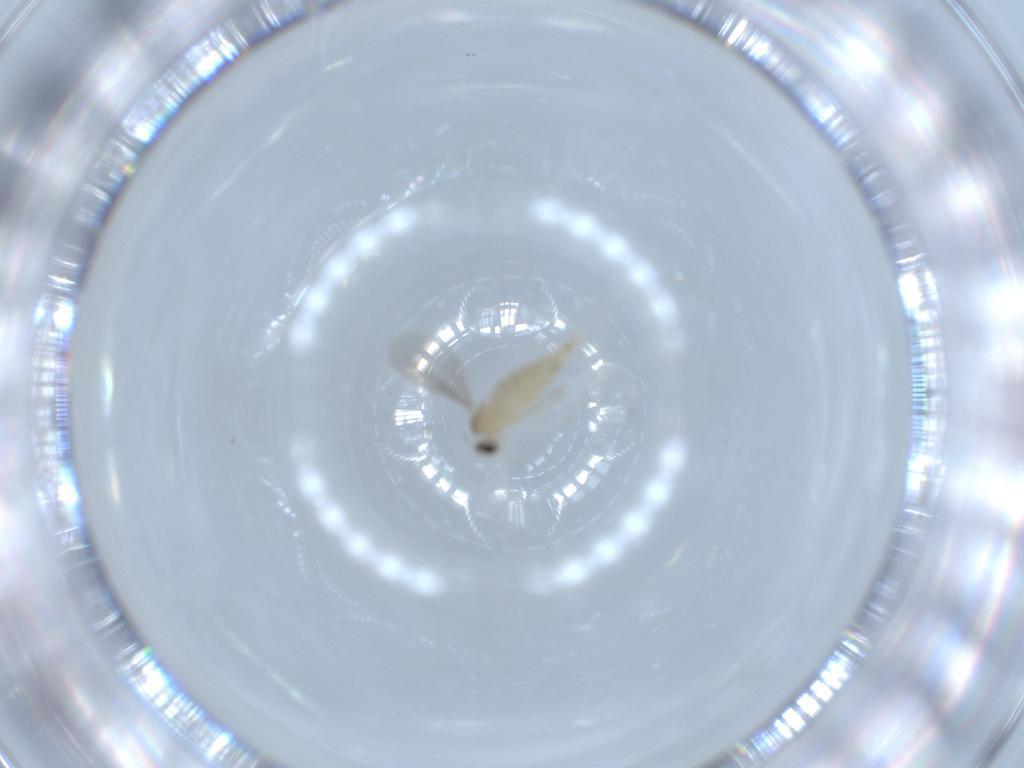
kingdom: Animalia
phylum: Arthropoda
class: Insecta
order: Diptera
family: Cecidomyiidae
